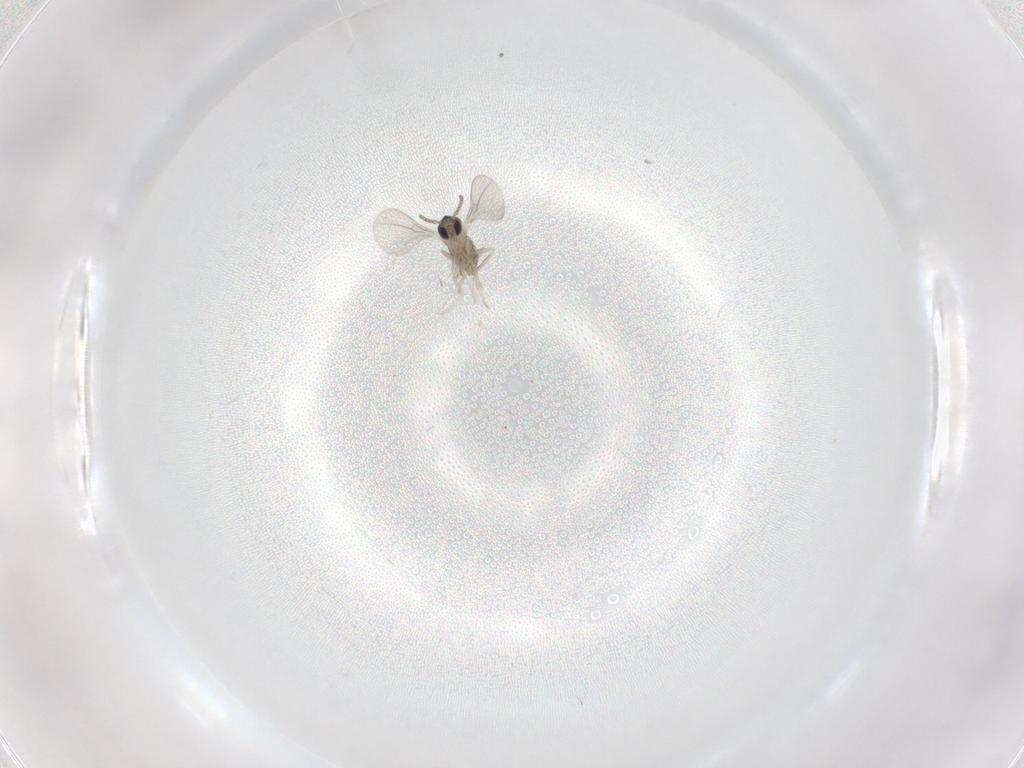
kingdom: Animalia
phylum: Arthropoda
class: Insecta
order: Diptera
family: Cecidomyiidae
